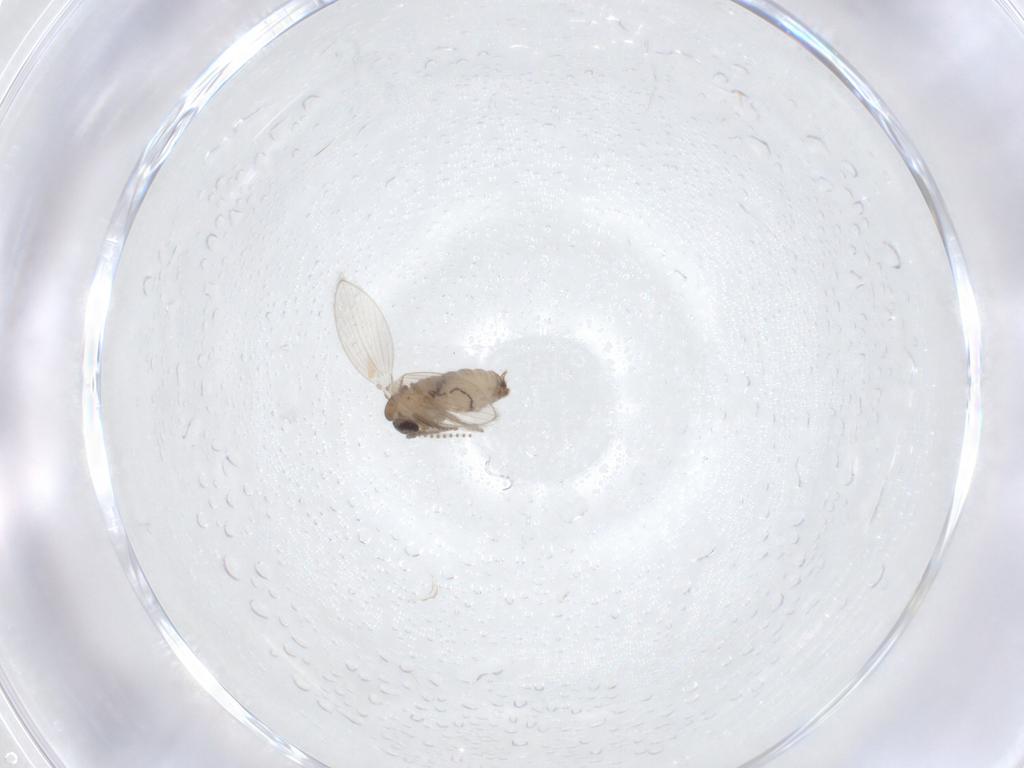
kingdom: Animalia
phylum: Arthropoda
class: Insecta
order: Diptera
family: Psychodidae
